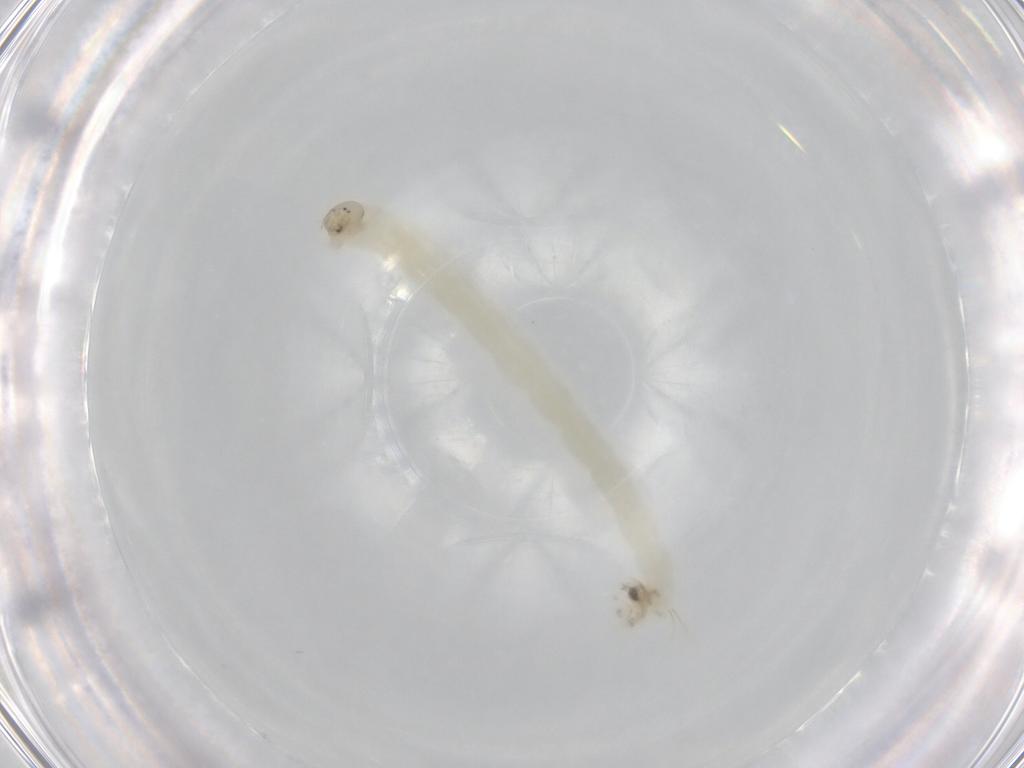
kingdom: Animalia
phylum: Arthropoda
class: Insecta
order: Diptera
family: Chironomidae
